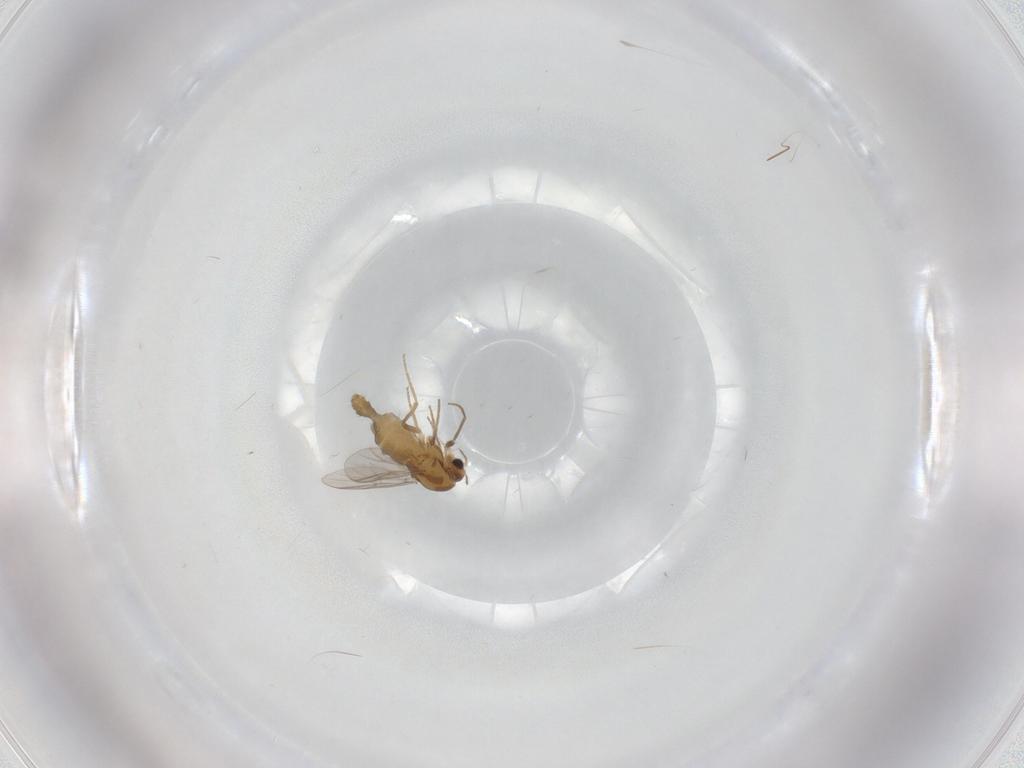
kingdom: Animalia
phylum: Arthropoda
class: Insecta
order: Diptera
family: Chironomidae
